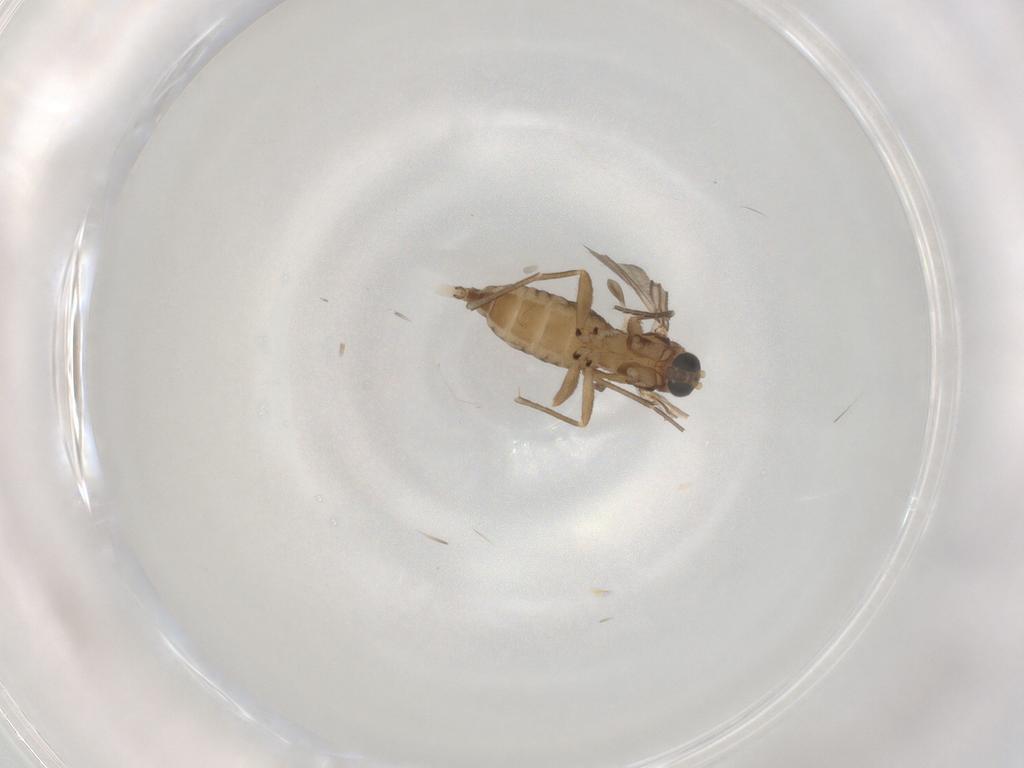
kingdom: Animalia
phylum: Arthropoda
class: Insecta
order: Diptera
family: Sciaridae
